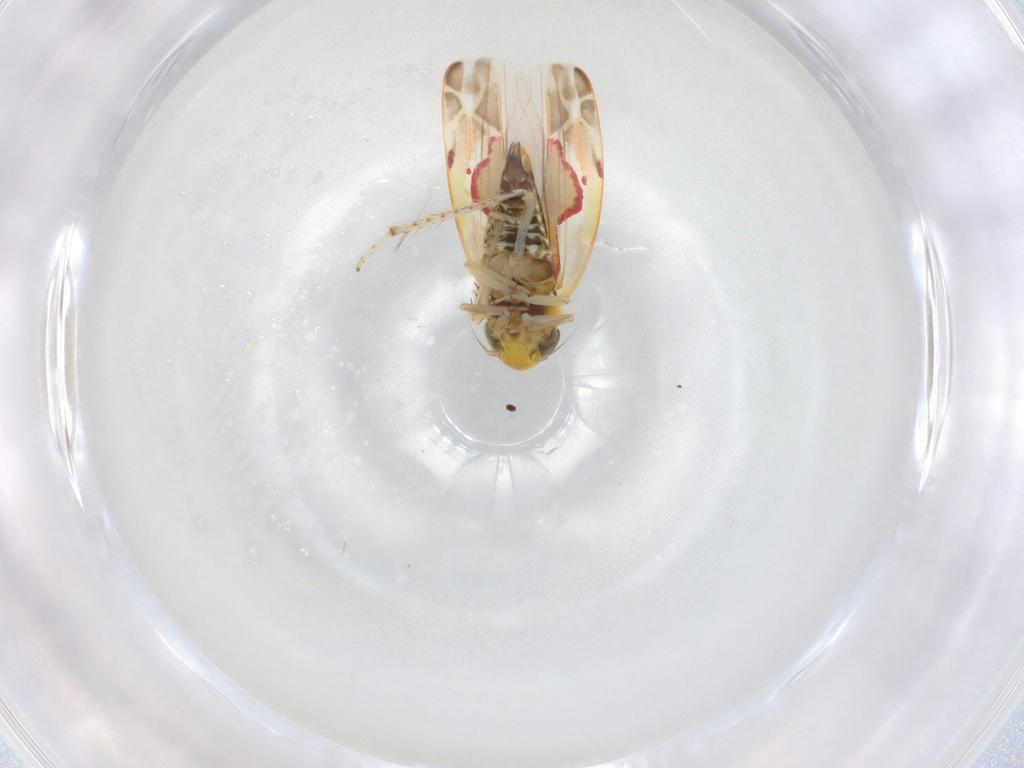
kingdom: Animalia
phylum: Arthropoda
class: Insecta
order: Hemiptera
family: Cicadellidae
